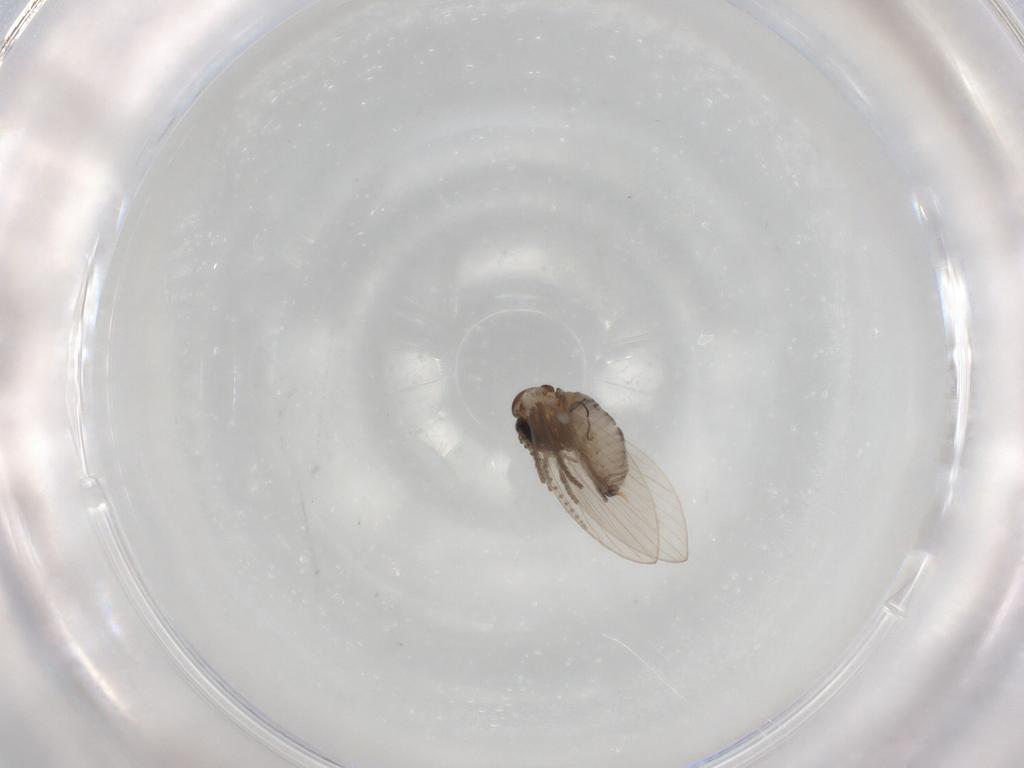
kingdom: Animalia
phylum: Arthropoda
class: Insecta
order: Diptera
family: Psychodidae
